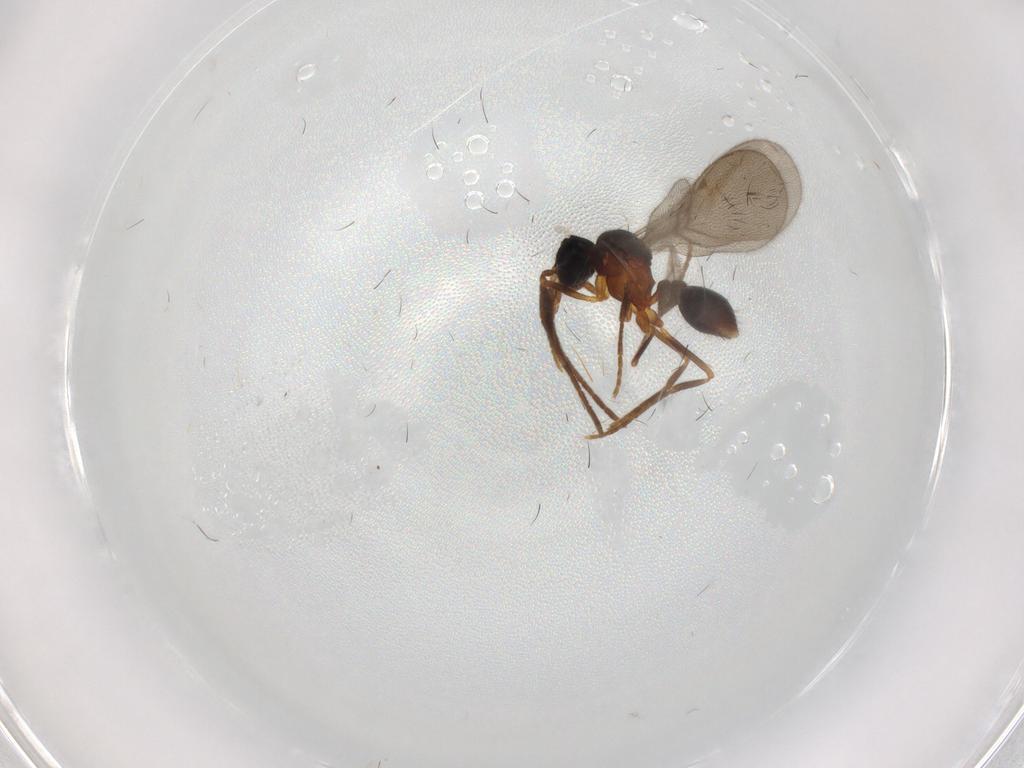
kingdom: Animalia
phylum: Arthropoda
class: Insecta
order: Hymenoptera
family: Formicidae
